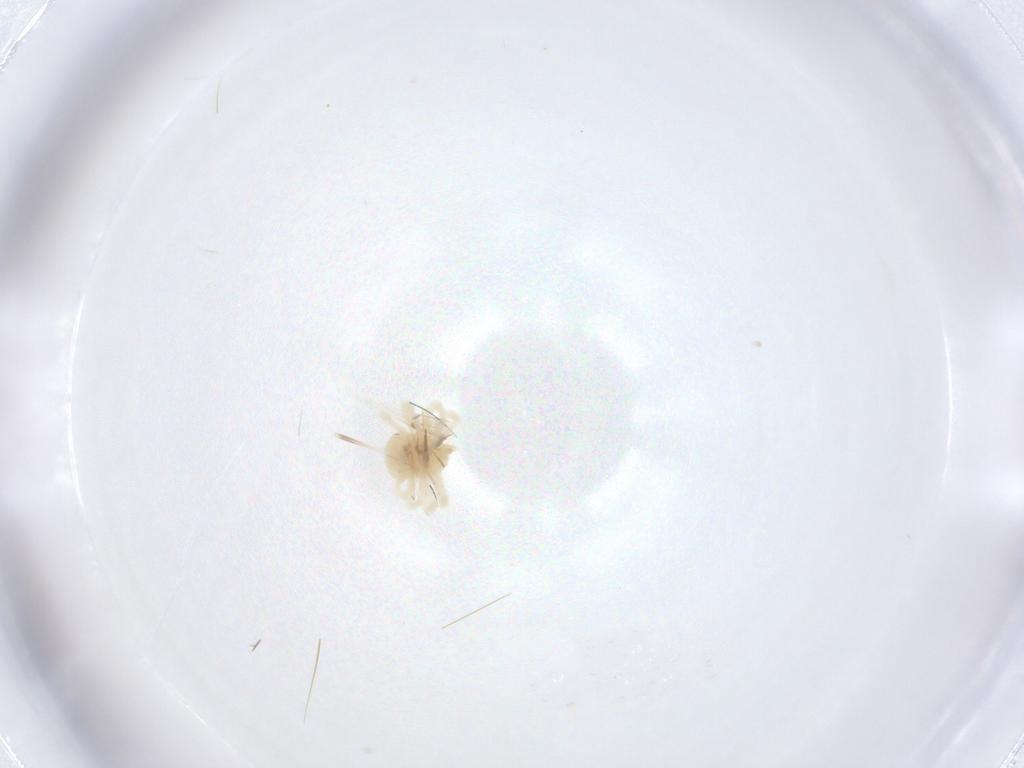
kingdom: Animalia
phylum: Arthropoda
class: Arachnida
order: Trombidiformes
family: Anystidae
